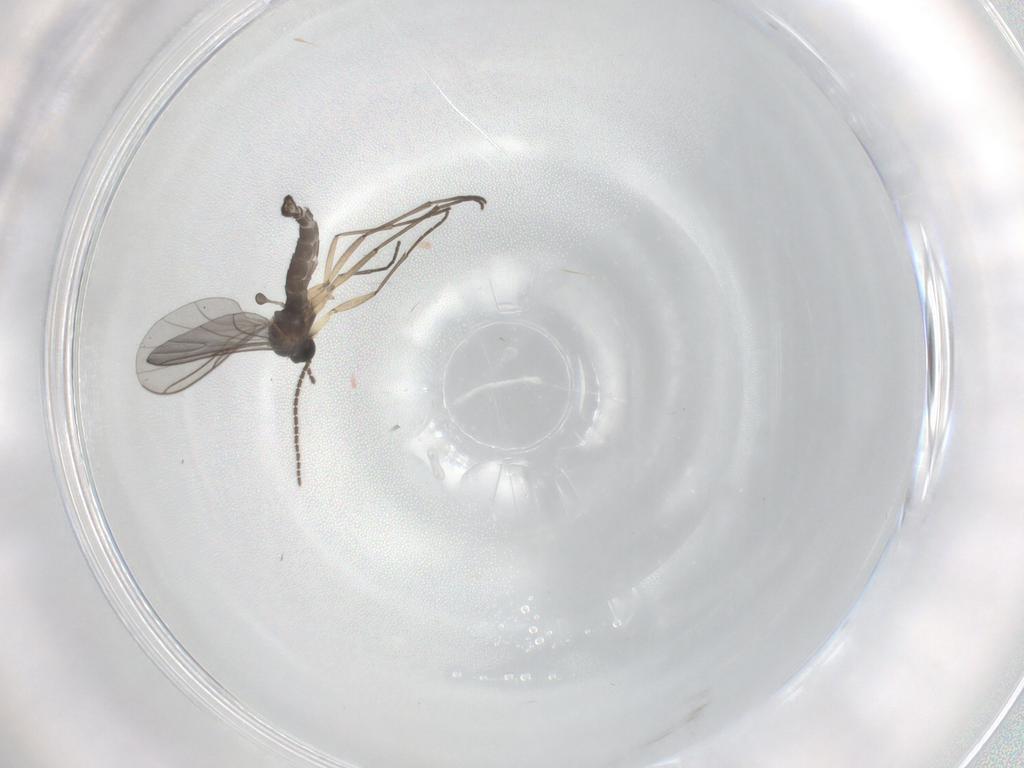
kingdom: Animalia
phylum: Arthropoda
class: Insecta
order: Diptera
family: Sciaridae
